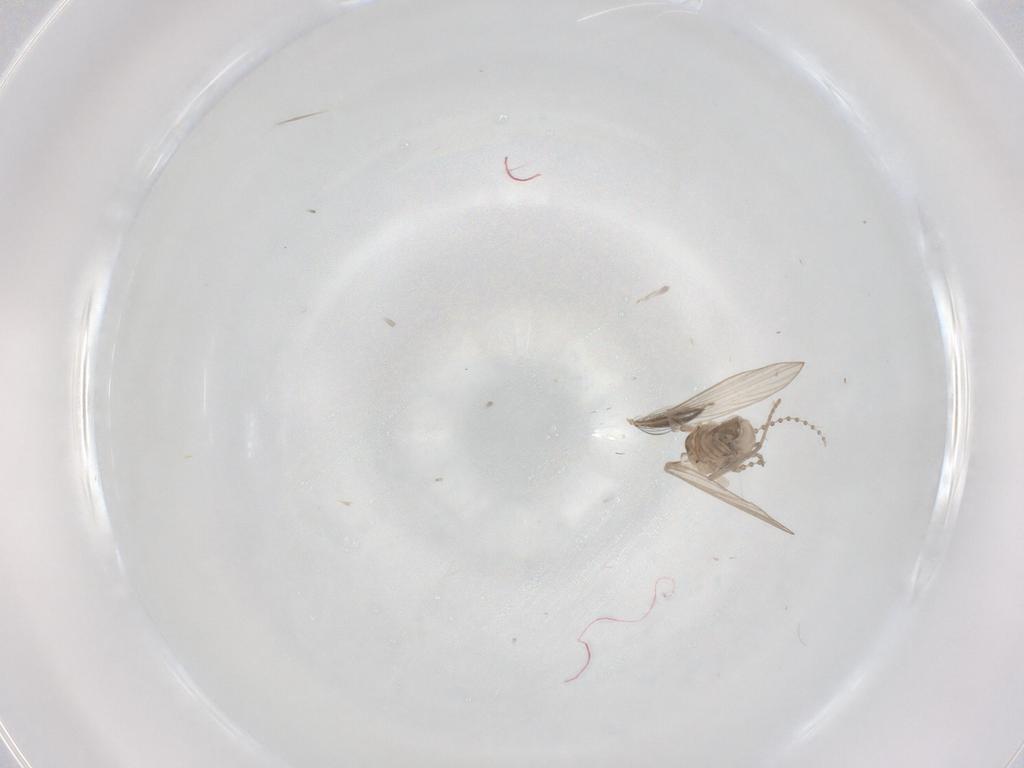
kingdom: Animalia
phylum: Arthropoda
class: Insecta
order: Diptera
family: Psychodidae
